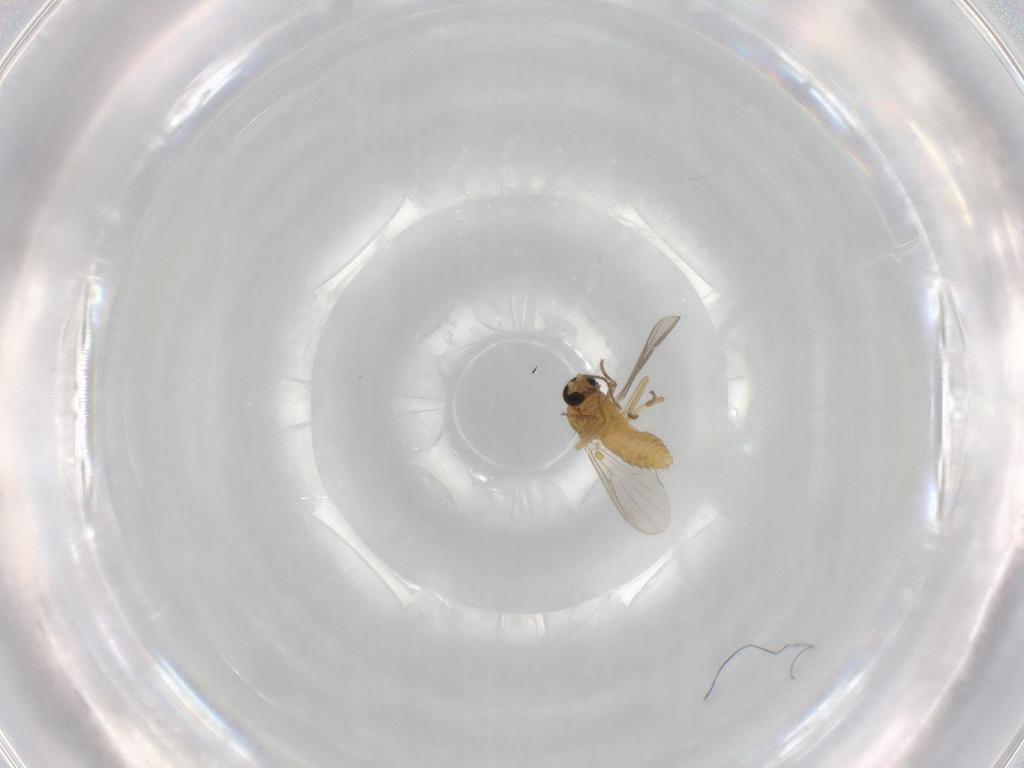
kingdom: Animalia
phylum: Arthropoda
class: Insecta
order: Diptera
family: Ceratopogonidae
